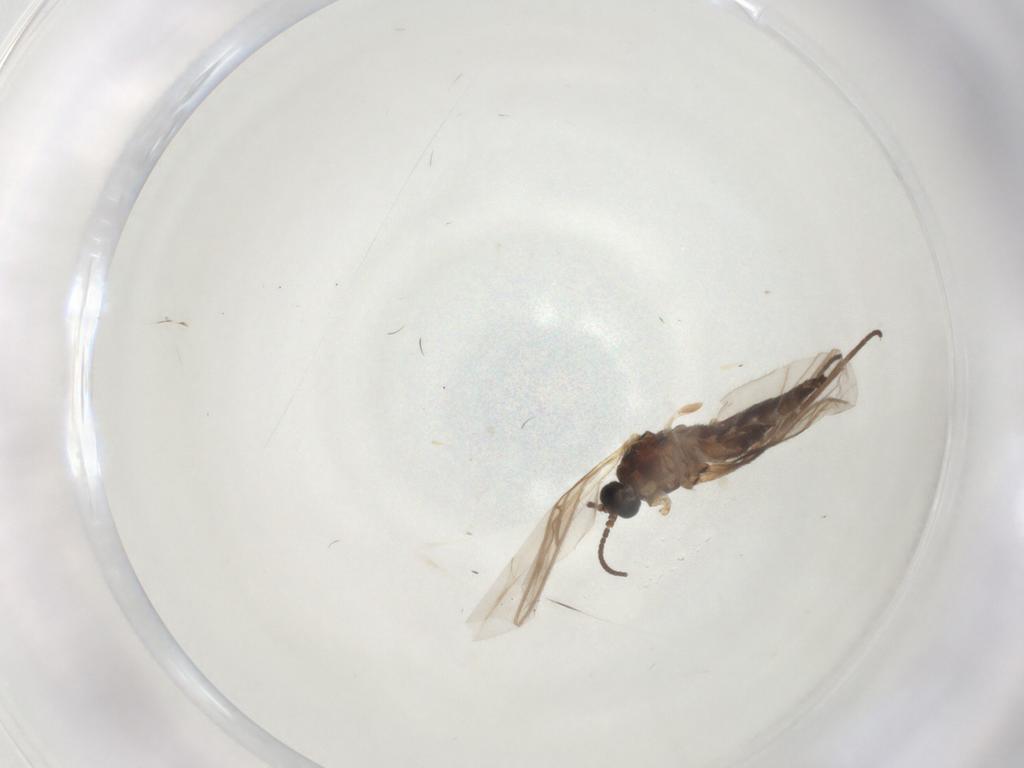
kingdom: Animalia
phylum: Arthropoda
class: Insecta
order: Diptera
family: Sciaridae
